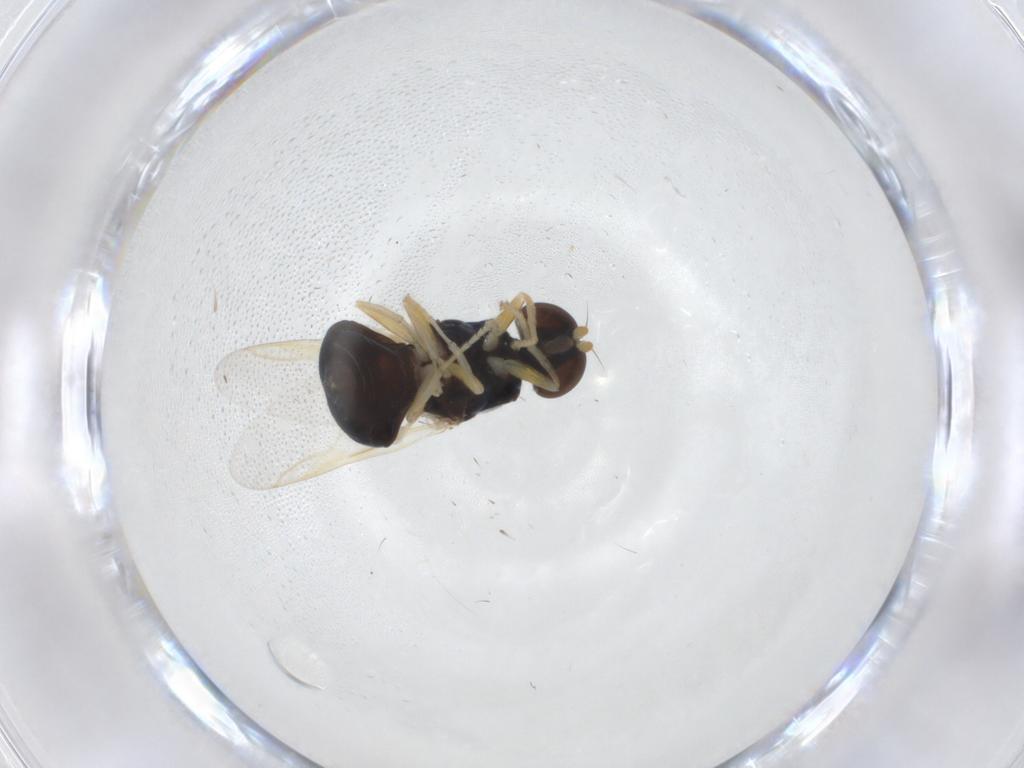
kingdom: Animalia
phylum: Arthropoda
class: Insecta
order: Diptera
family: Stratiomyidae
